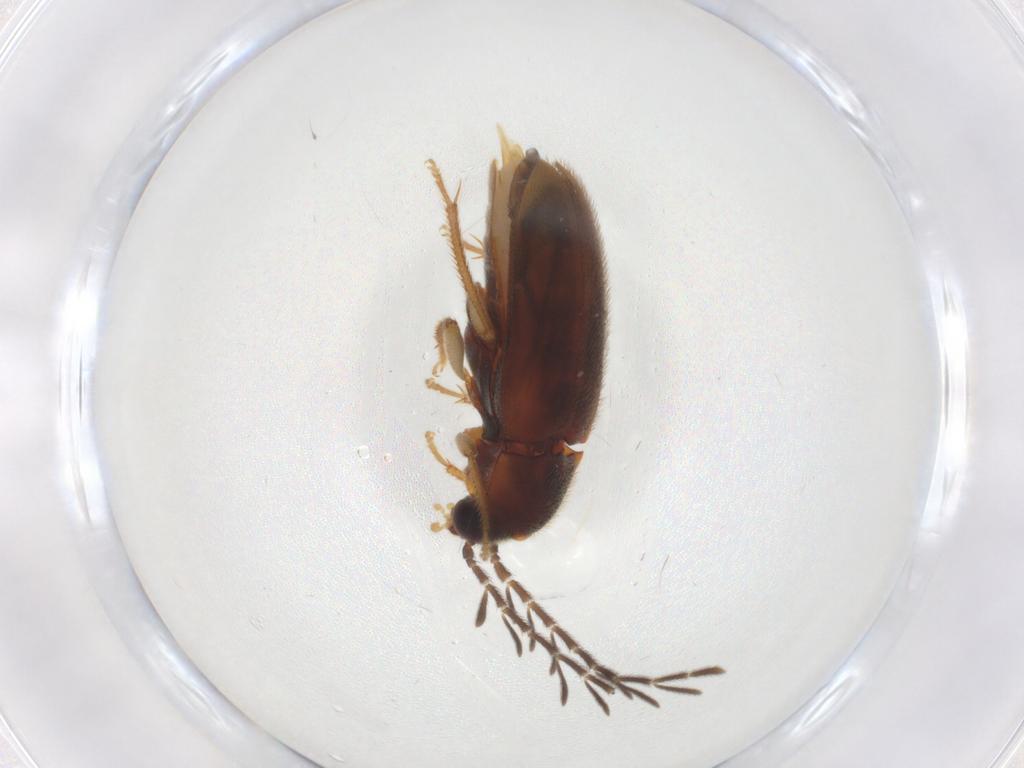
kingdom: Animalia
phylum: Arthropoda
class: Insecta
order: Diptera
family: Cecidomyiidae
